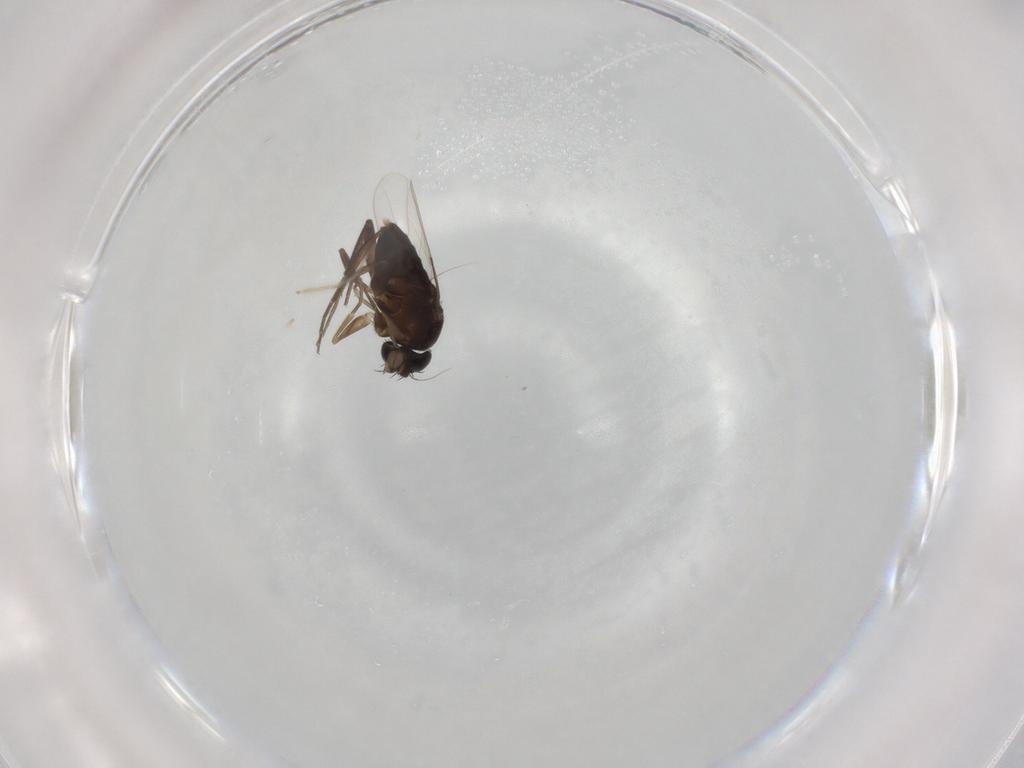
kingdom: Animalia
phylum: Arthropoda
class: Insecta
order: Diptera
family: Phoridae
